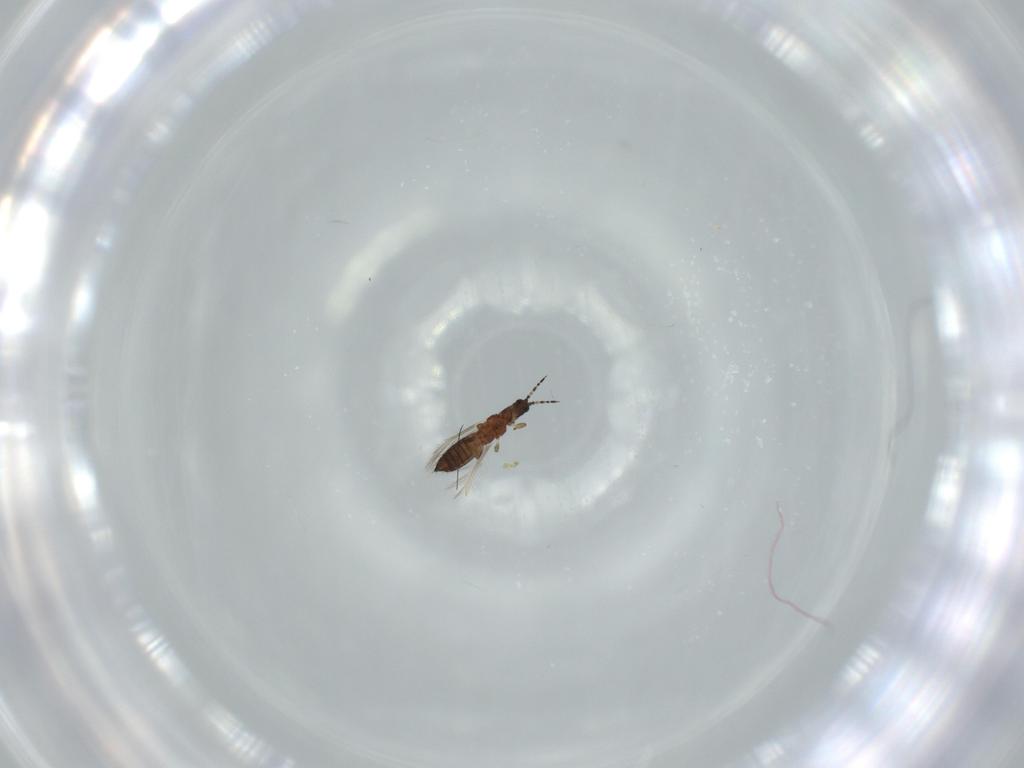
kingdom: Animalia
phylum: Arthropoda
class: Insecta
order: Thysanoptera
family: Thripidae
